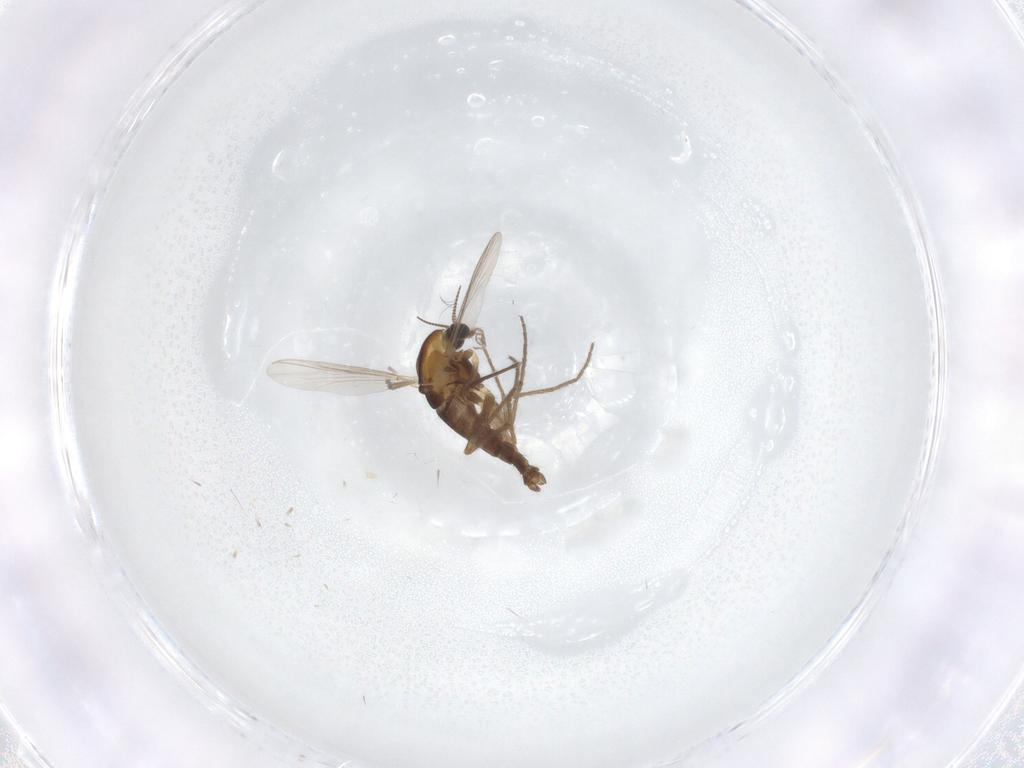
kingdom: Animalia
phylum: Arthropoda
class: Insecta
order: Diptera
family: Chironomidae
